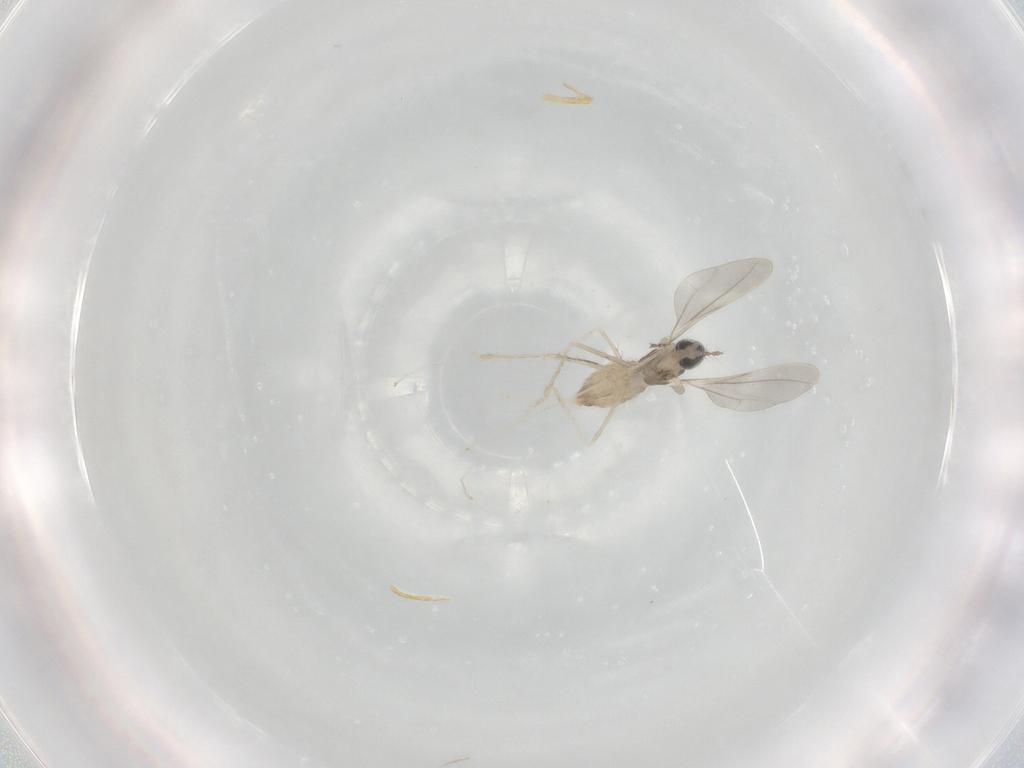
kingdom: Animalia
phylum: Arthropoda
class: Insecta
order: Diptera
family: Cecidomyiidae
